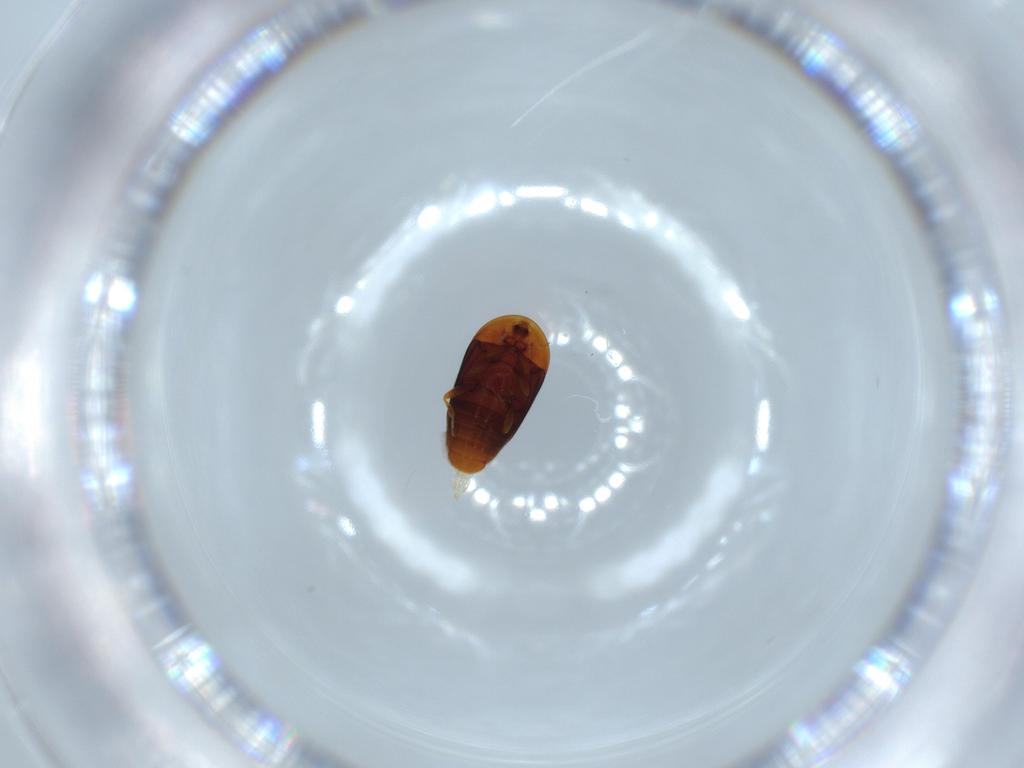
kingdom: Animalia
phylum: Arthropoda
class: Insecta
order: Coleoptera
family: Corylophidae
